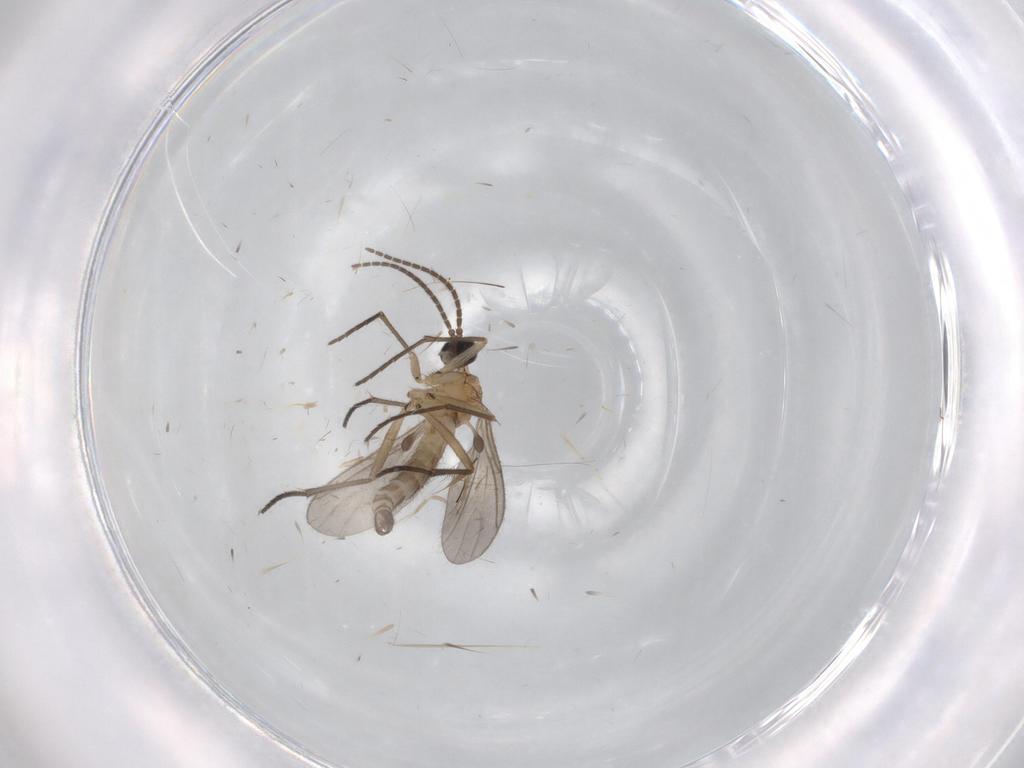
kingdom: Animalia
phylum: Arthropoda
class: Insecta
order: Diptera
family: Sciaridae
